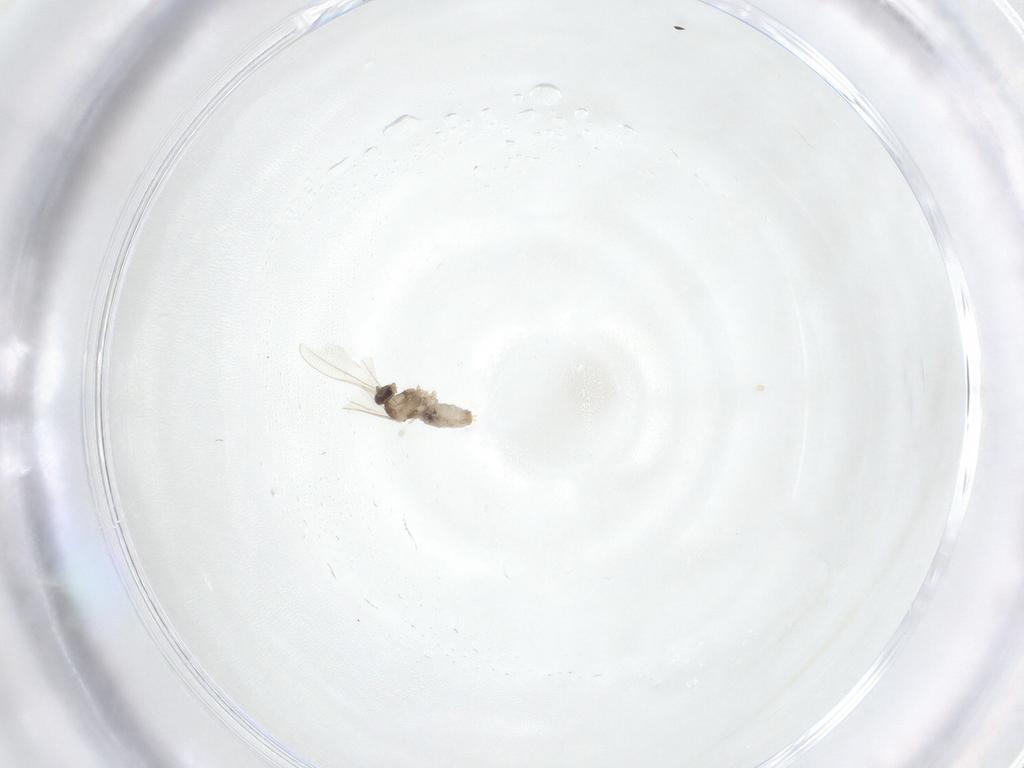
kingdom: Animalia
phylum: Arthropoda
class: Insecta
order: Diptera
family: Cecidomyiidae
